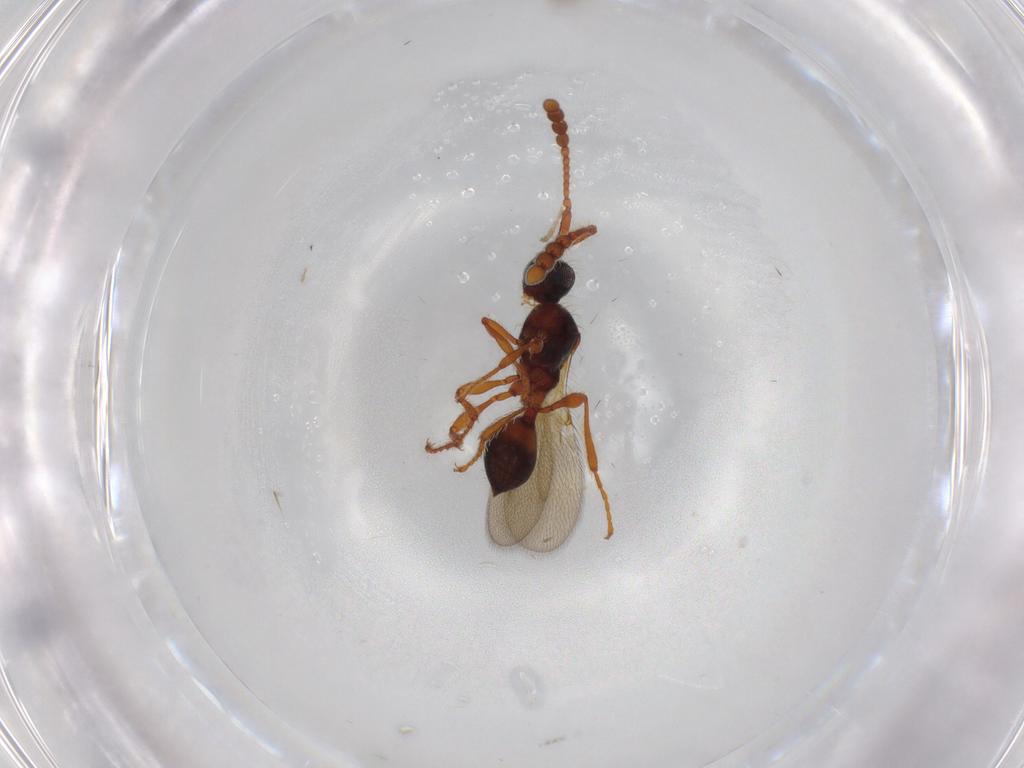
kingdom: Animalia
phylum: Arthropoda
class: Insecta
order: Hymenoptera
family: Diapriidae
